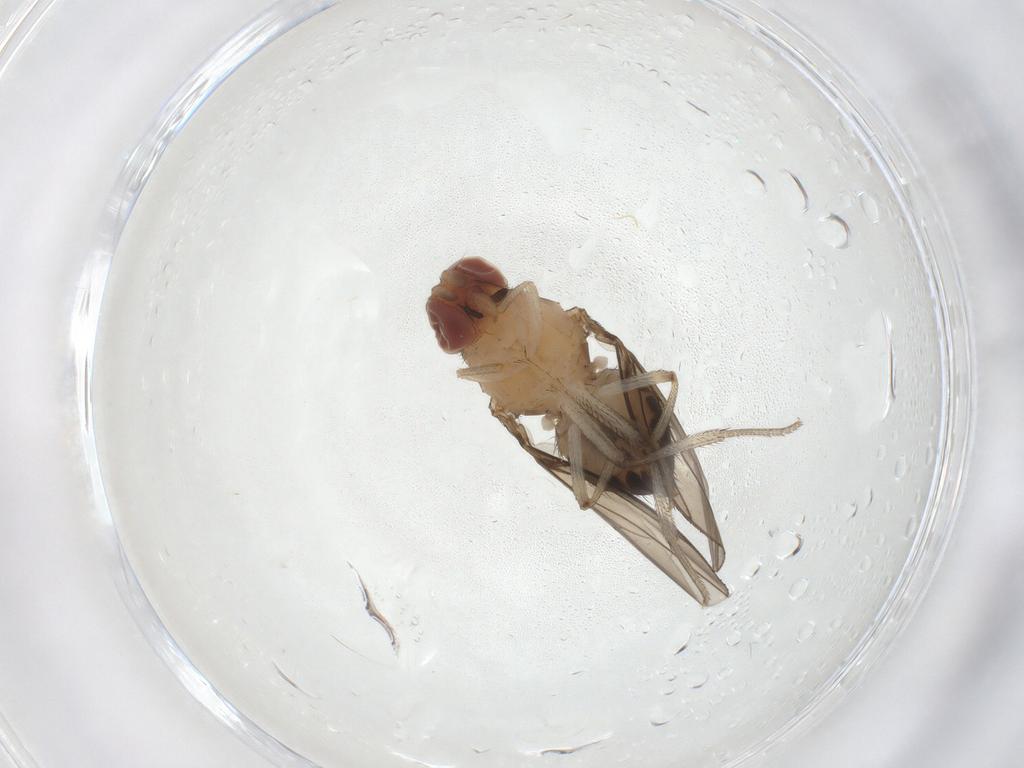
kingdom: Animalia
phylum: Arthropoda
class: Insecta
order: Diptera
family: Drosophilidae
